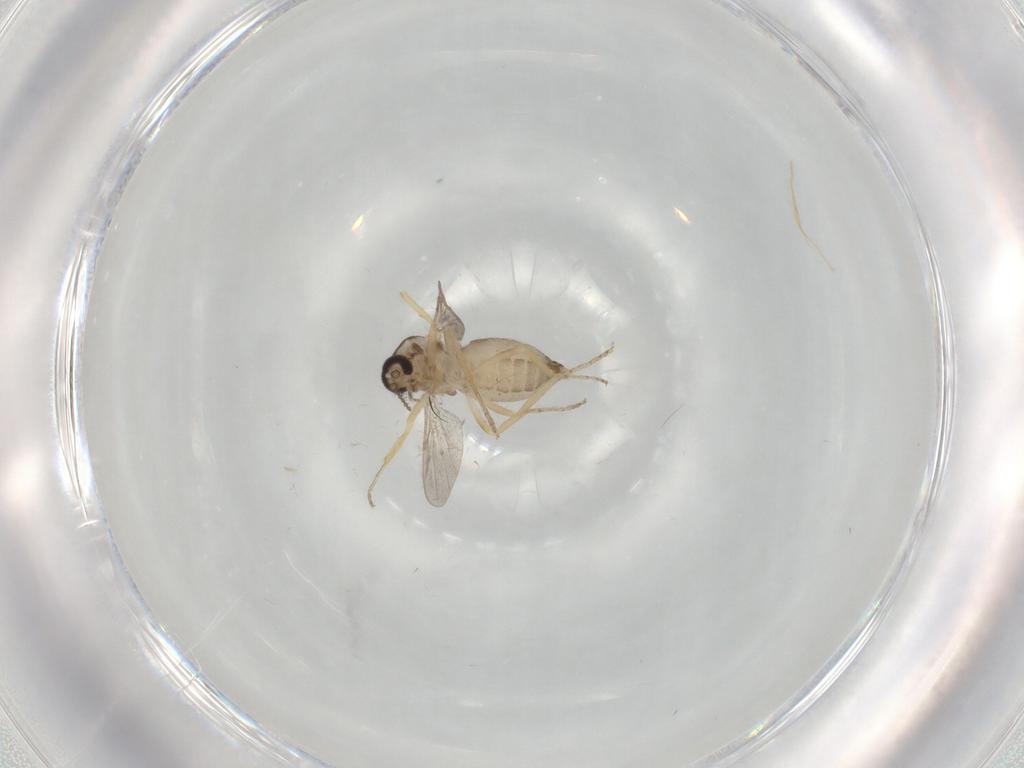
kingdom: Animalia
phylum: Arthropoda
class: Insecta
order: Diptera
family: Ceratopogonidae
